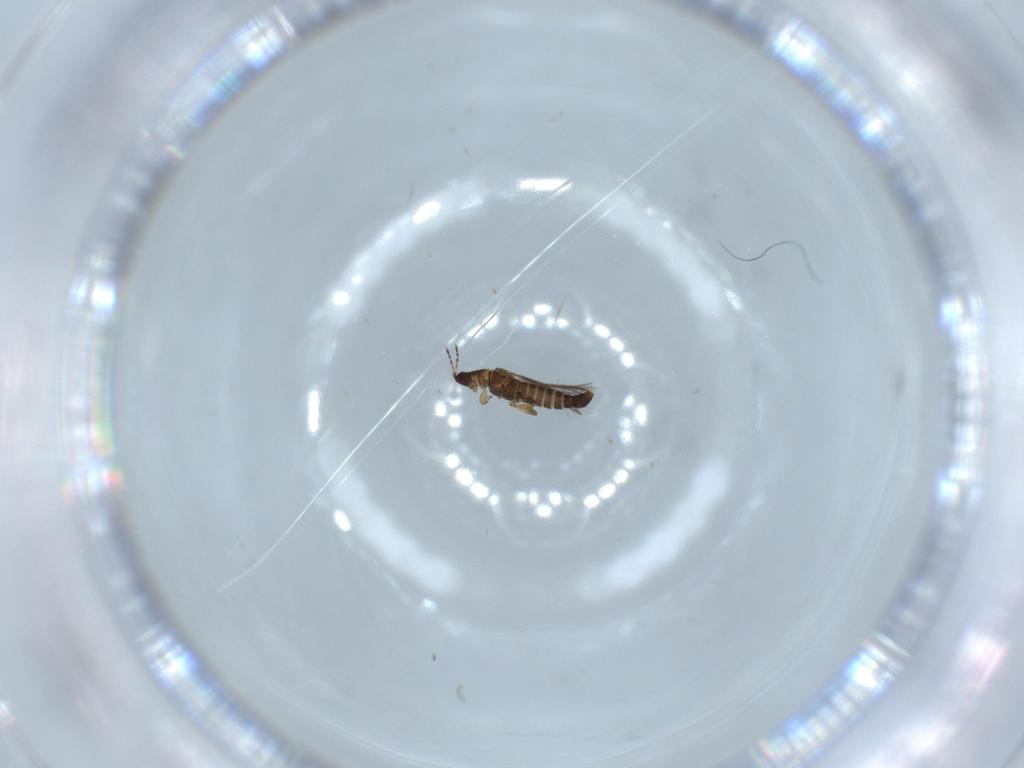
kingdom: Animalia
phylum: Arthropoda
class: Insecta
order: Thysanoptera
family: Thripidae
